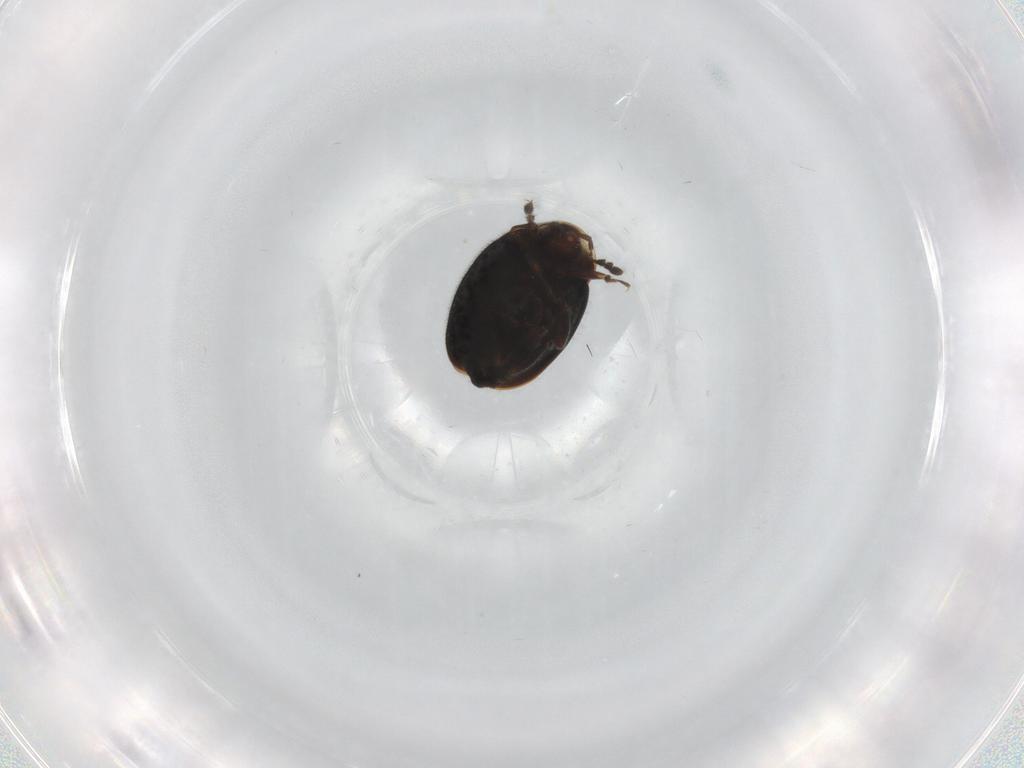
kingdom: Animalia
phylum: Arthropoda
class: Insecta
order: Coleoptera
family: Corylophidae
